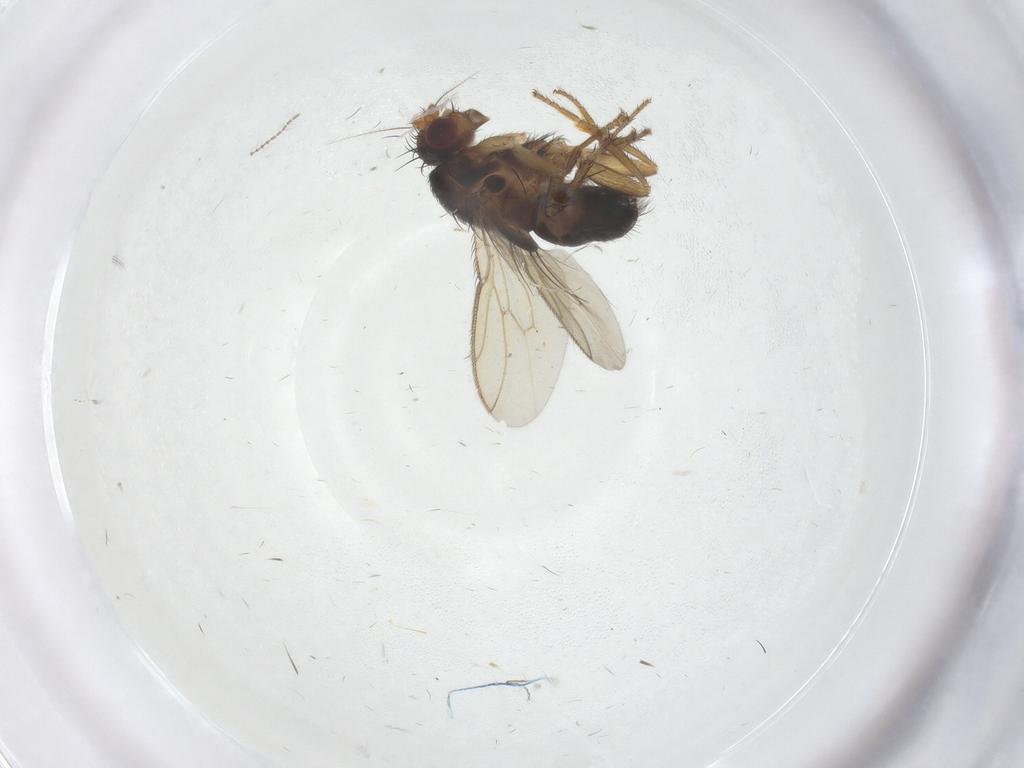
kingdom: Animalia
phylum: Arthropoda
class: Insecta
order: Diptera
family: Sphaeroceridae
